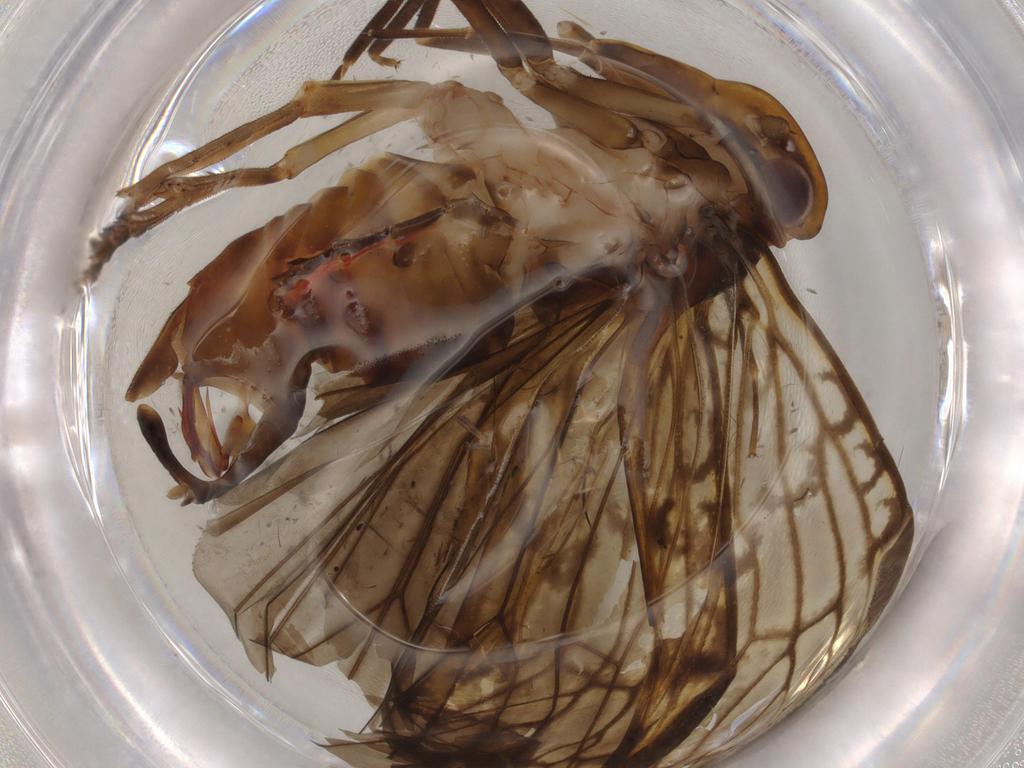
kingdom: Animalia
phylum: Arthropoda
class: Insecta
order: Hemiptera
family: Cixiidae
